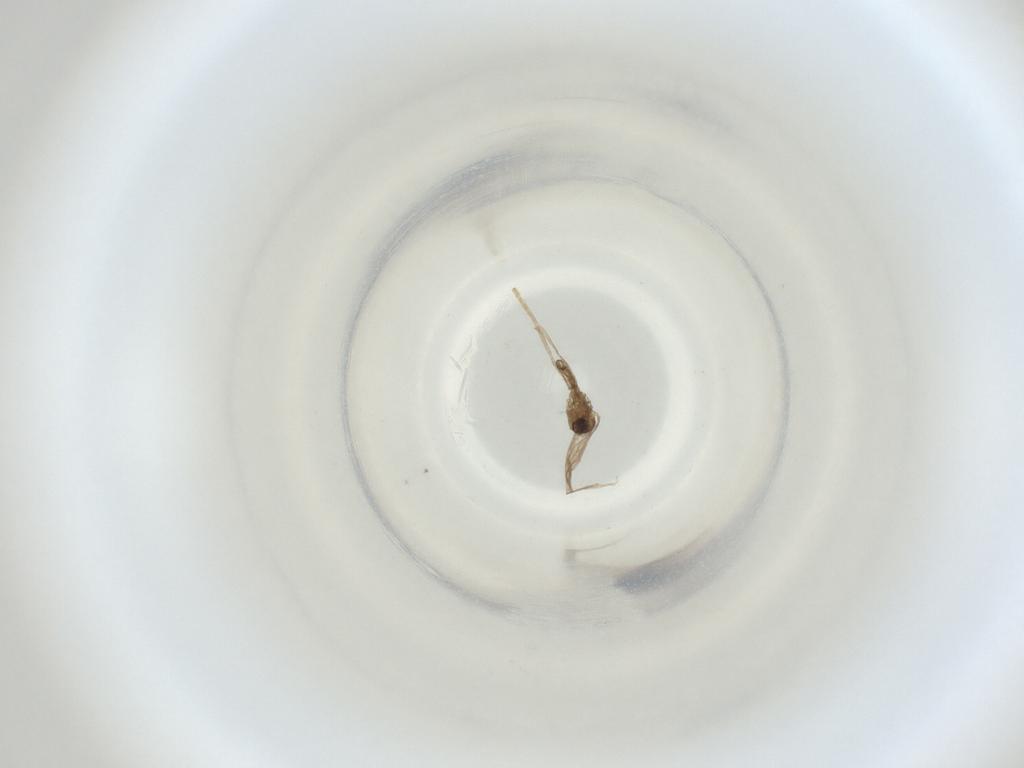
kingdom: Animalia
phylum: Arthropoda
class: Insecta
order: Diptera
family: Cecidomyiidae
